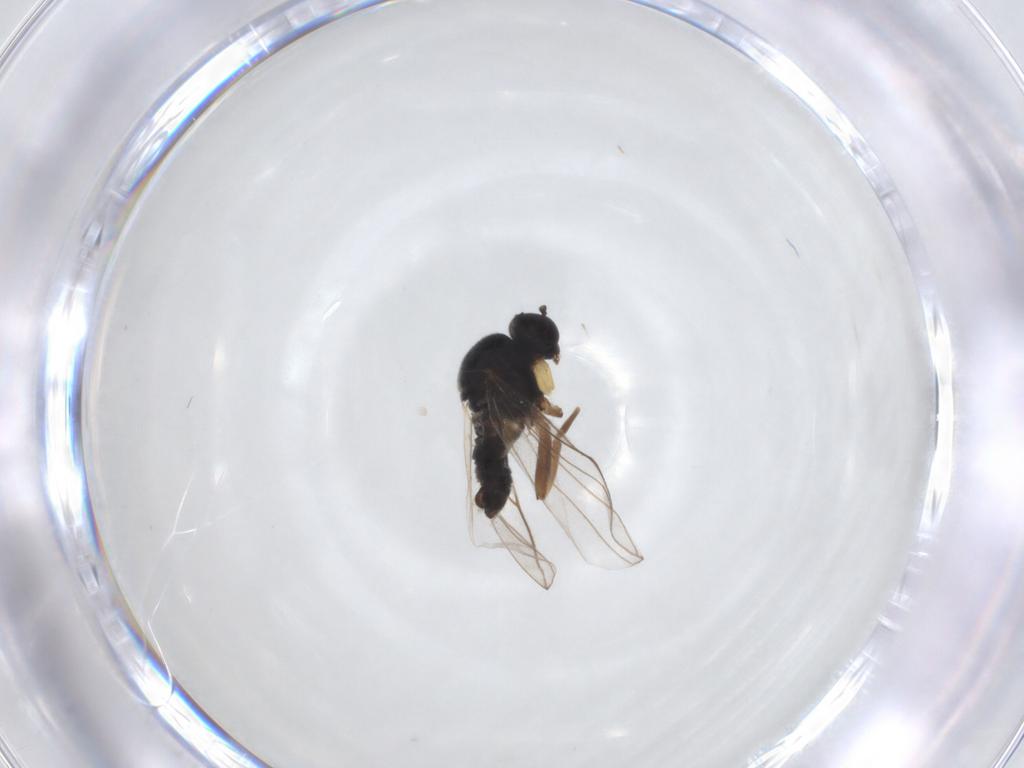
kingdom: Animalia
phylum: Arthropoda
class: Insecta
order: Diptera
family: Hybotidae
